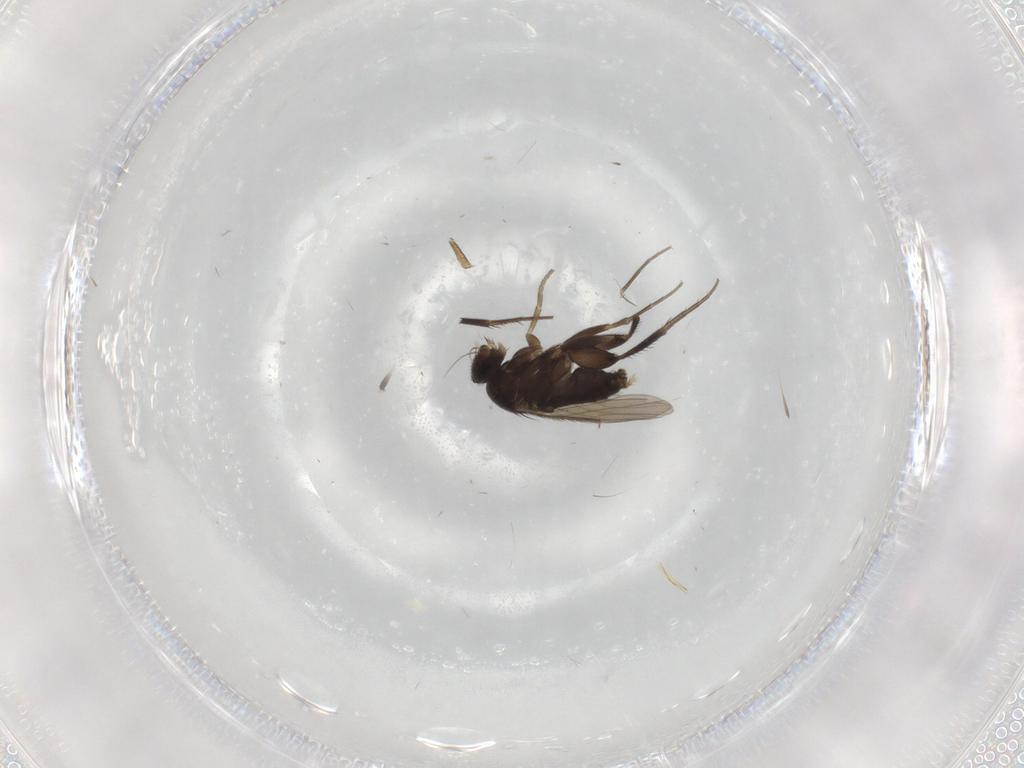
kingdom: Animalia
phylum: Arthropoda
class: Insecta
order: Diptera
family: Phoridae
